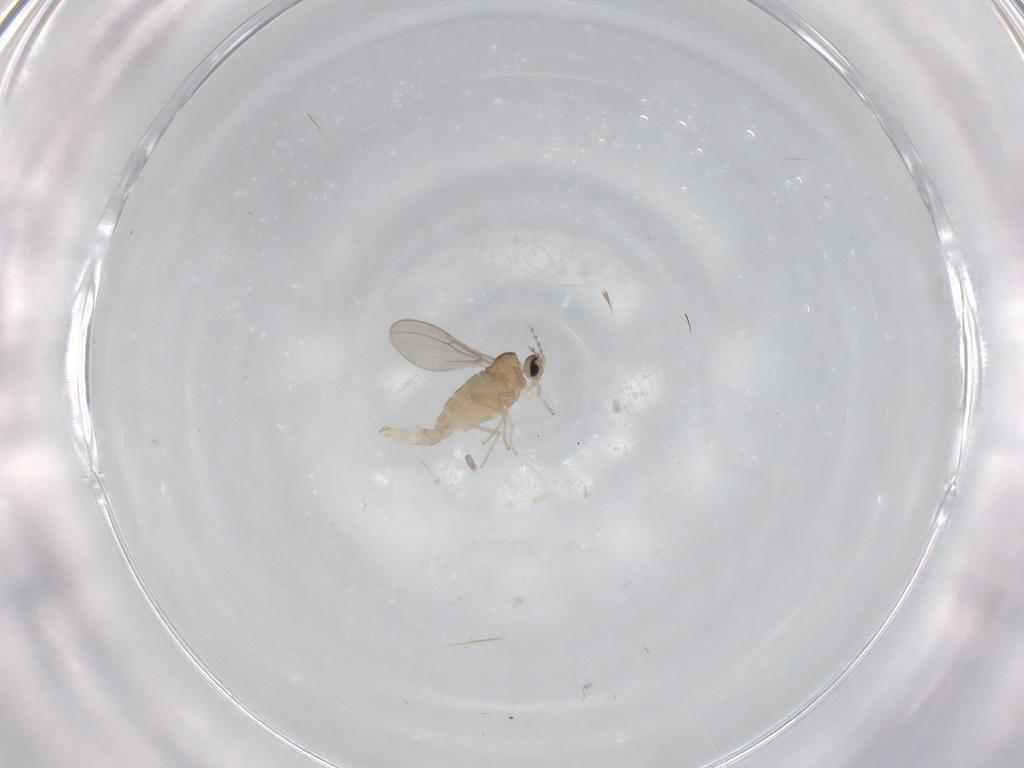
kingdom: Animalia
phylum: Arthropoda
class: Insecta
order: Diptera
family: Cecidomyiidae
